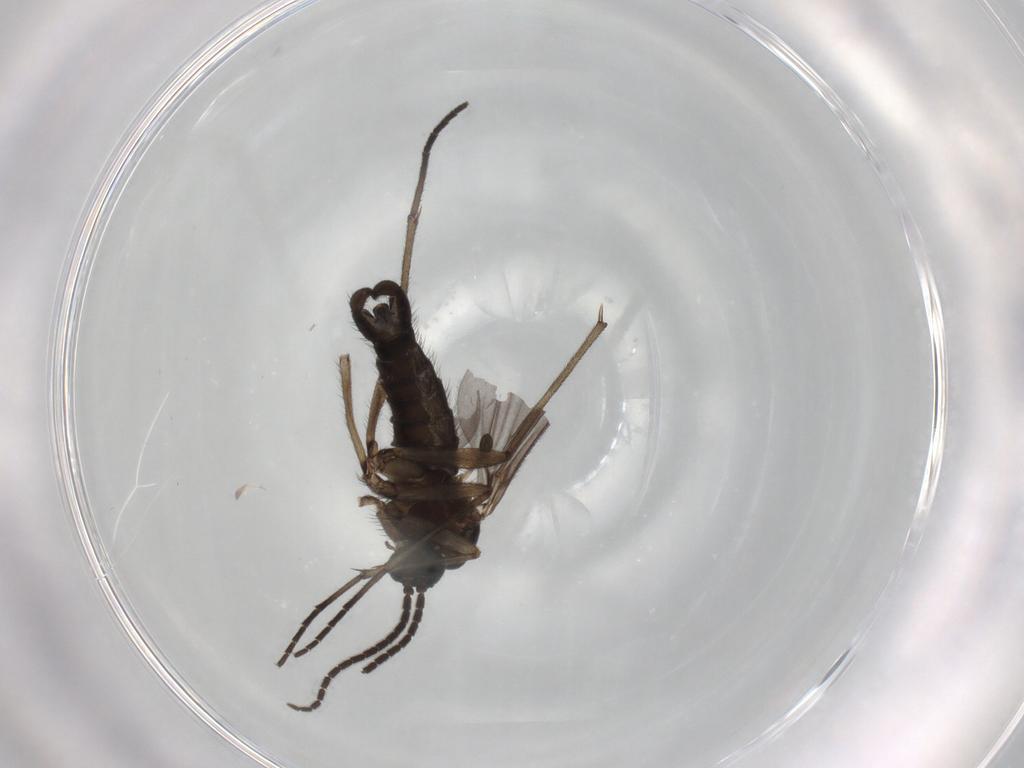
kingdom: Animalia
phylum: Arthropoda
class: Insecta
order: Diptera
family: Sciaridae
